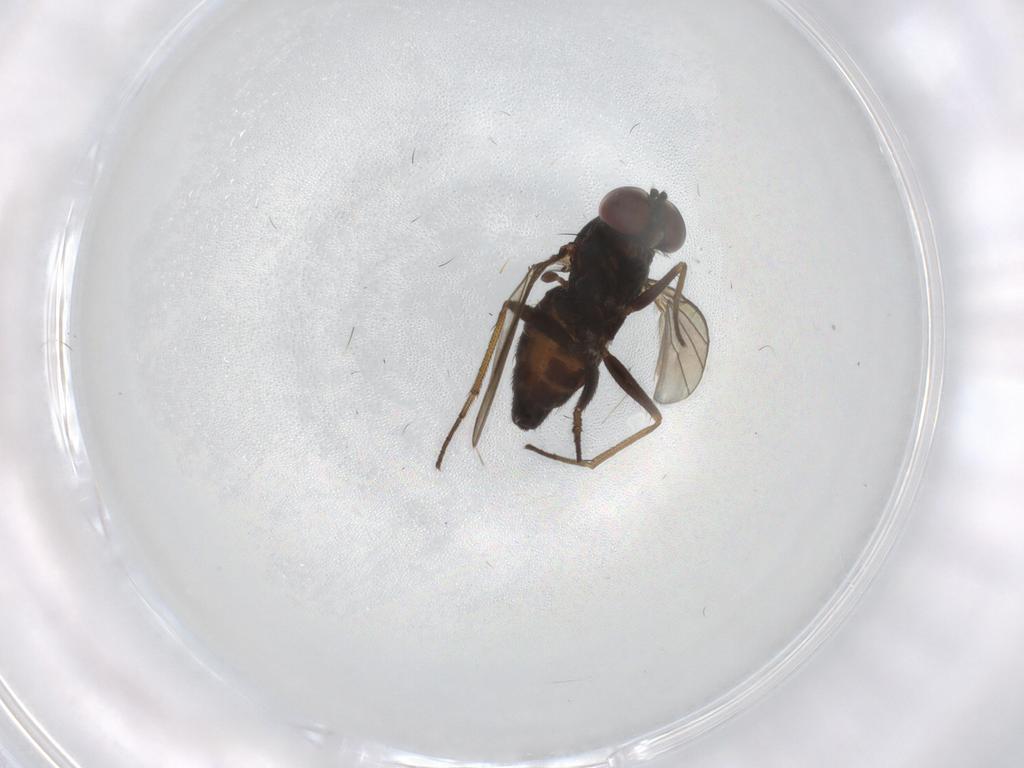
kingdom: Animalia
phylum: Arthropoda
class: Insecta
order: Diptera
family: Dolichopodidae
